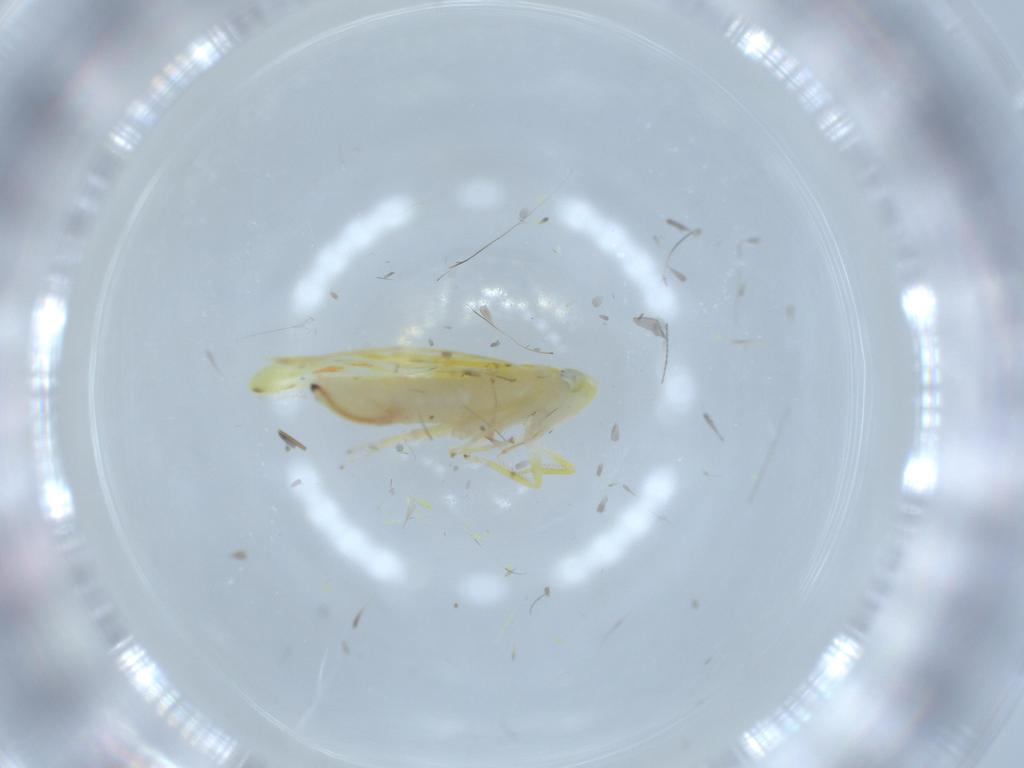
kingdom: Animalia
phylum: Arthropoda
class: Insecta
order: Hemiptera
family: Cicadellidae
